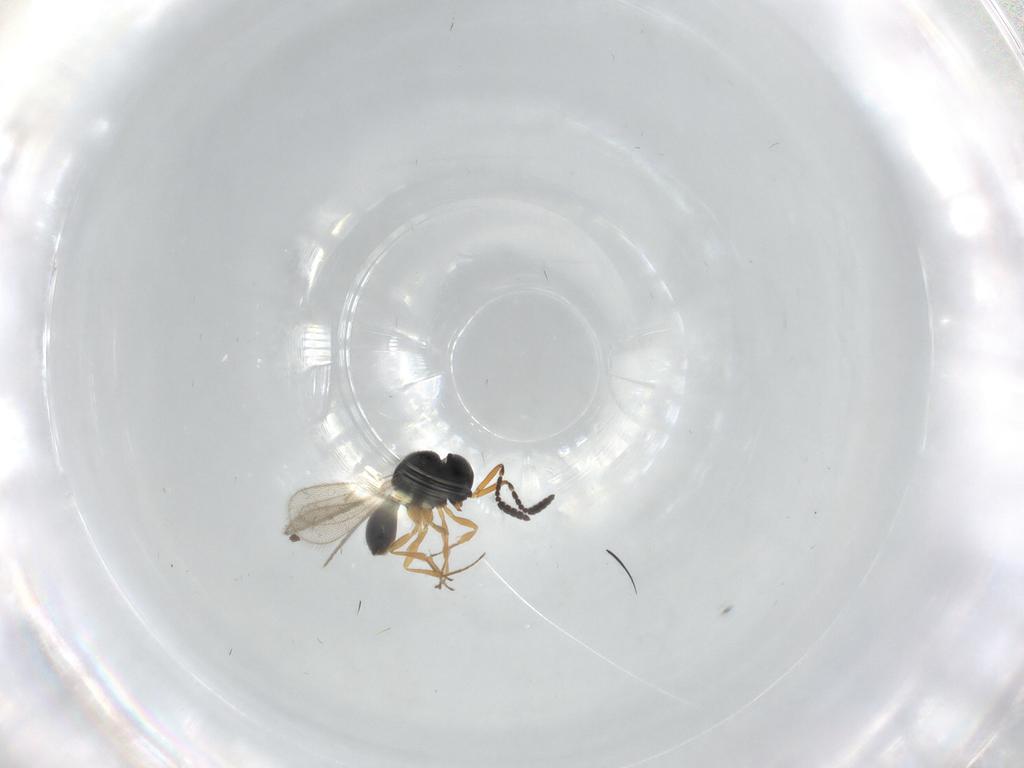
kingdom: Animalia
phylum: Arthropoda
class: Insecta
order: Hymenoptera
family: Scelionidae
